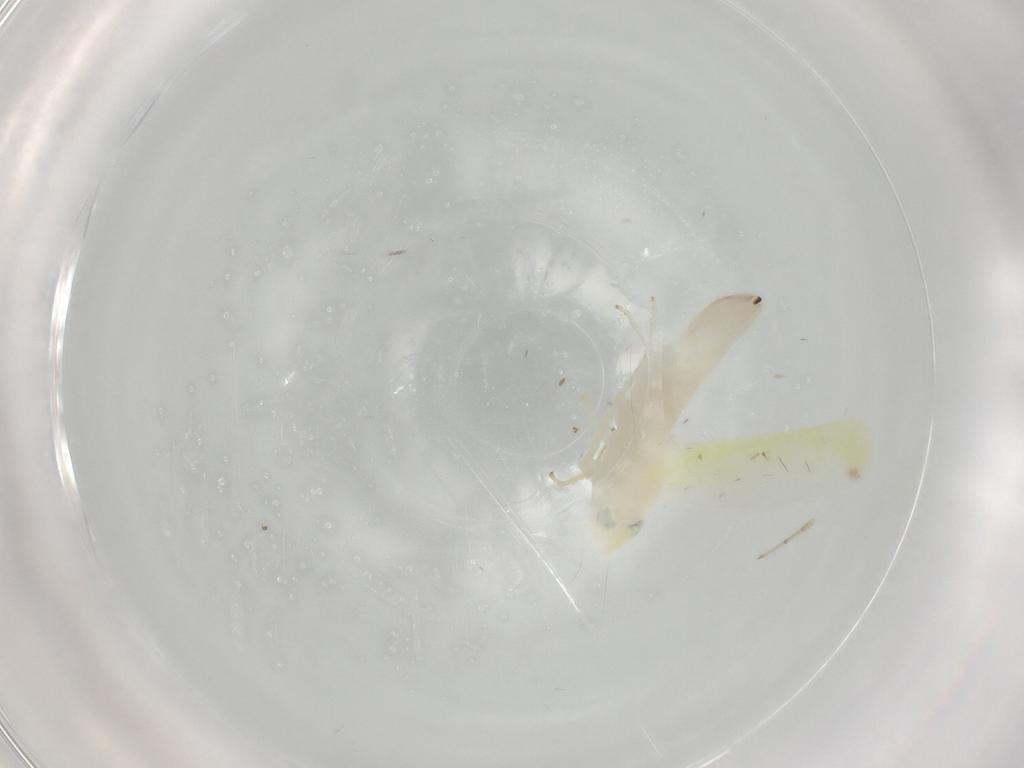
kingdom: Animalia
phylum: Arthropoda
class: Insecta
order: Hemiptera
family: Cicadellidae
